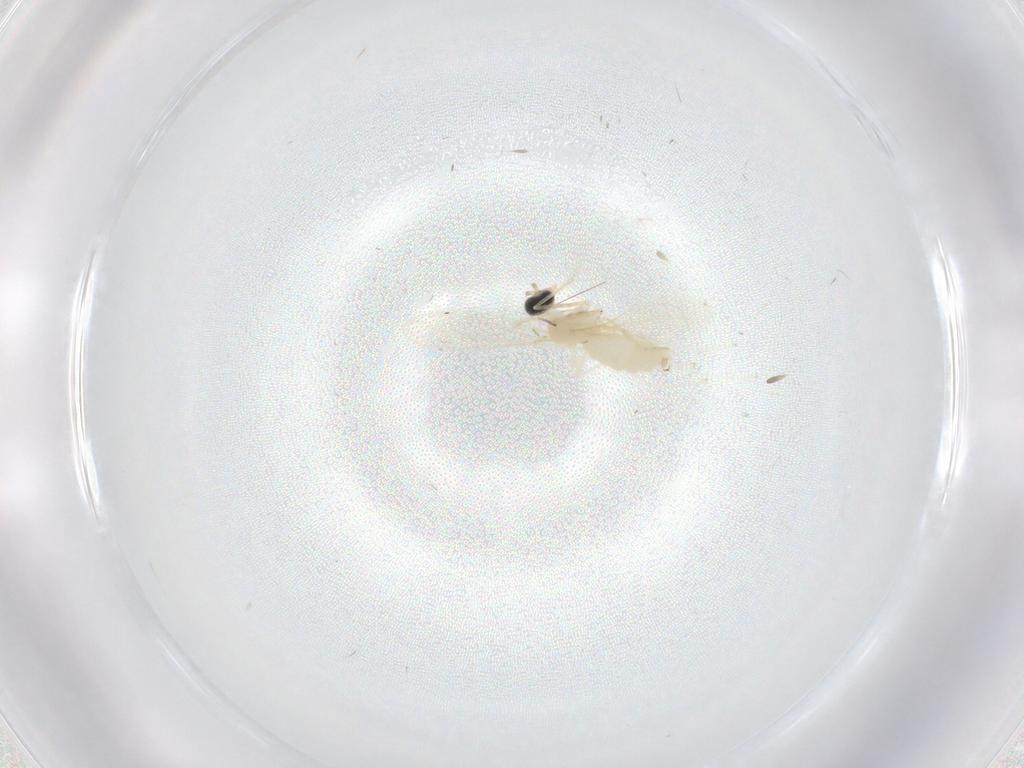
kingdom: Animalia
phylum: Arthropoda
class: Insecta
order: Diptera
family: Cecidomyiidae
